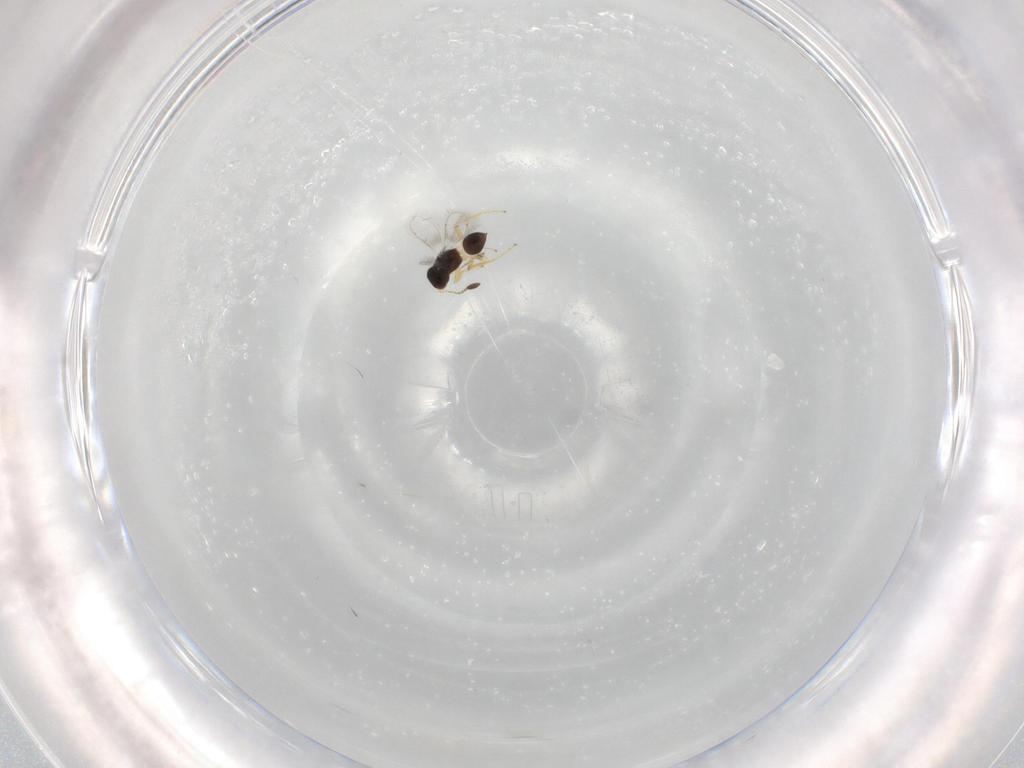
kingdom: Animalia
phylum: Arthropoda
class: Insecta
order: Hymenoptera
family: Mymaridae
